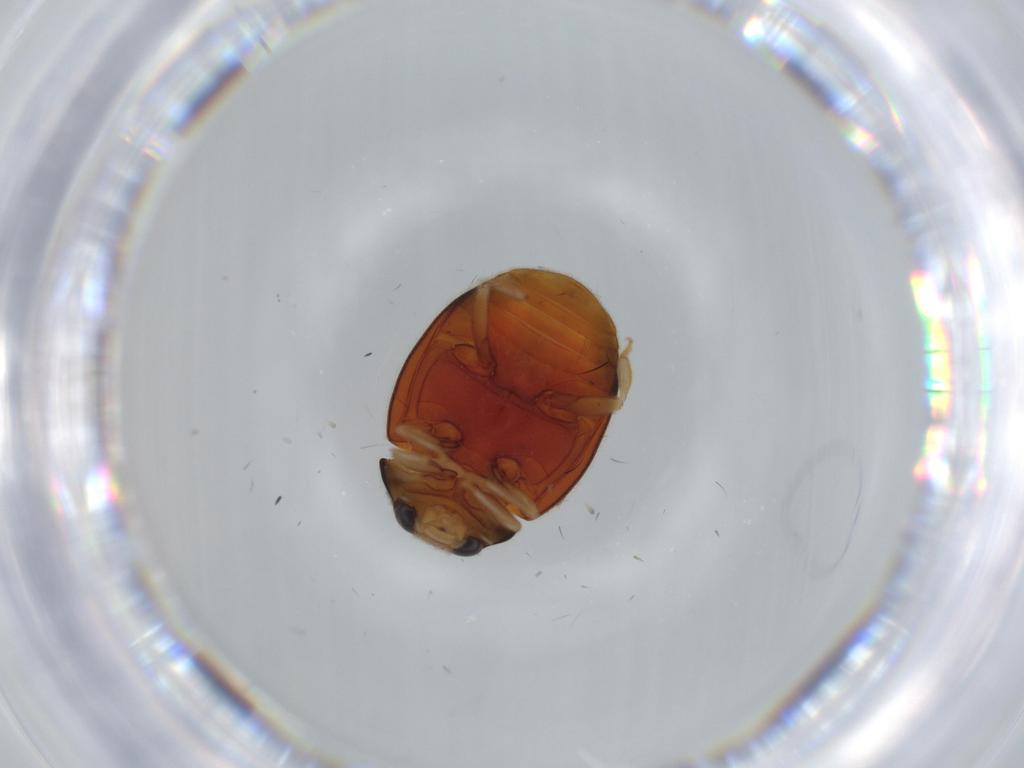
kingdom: Animalia
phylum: Arthropoda
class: Insecta
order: Coleoptera
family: Coccinellidae
